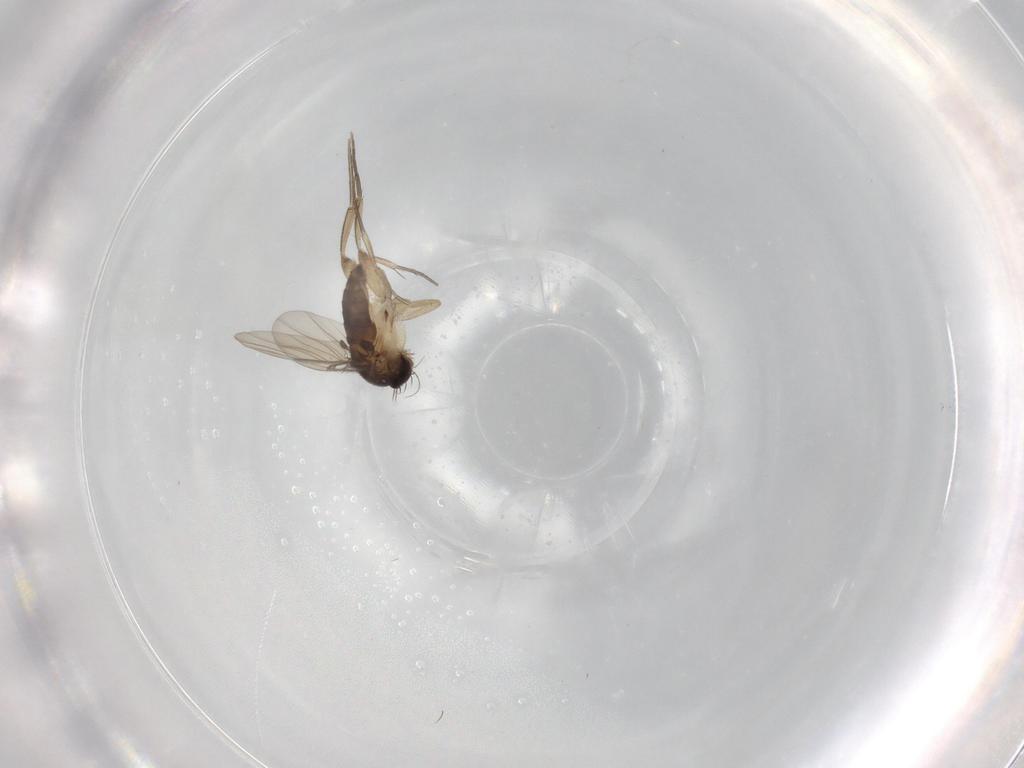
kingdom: Animalia
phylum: Arthropoda
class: Insecta
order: Diptera
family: Phoridae
